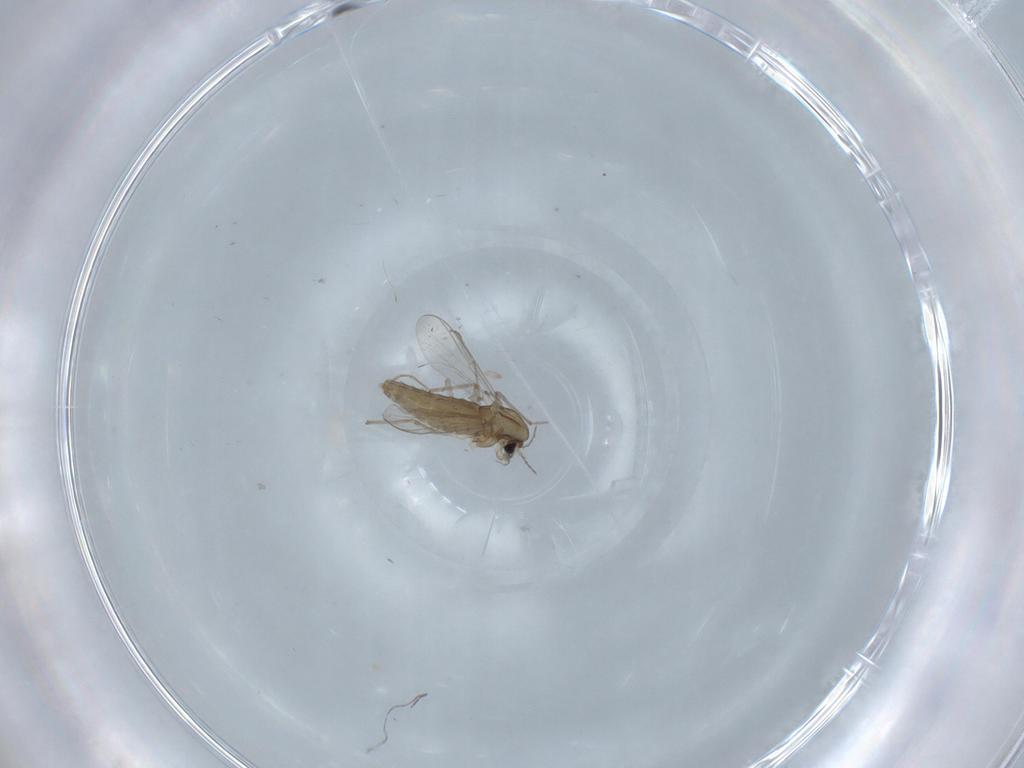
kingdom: Animalia
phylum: Arthropoda
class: Insecta
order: Diptera
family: Chironomidae
